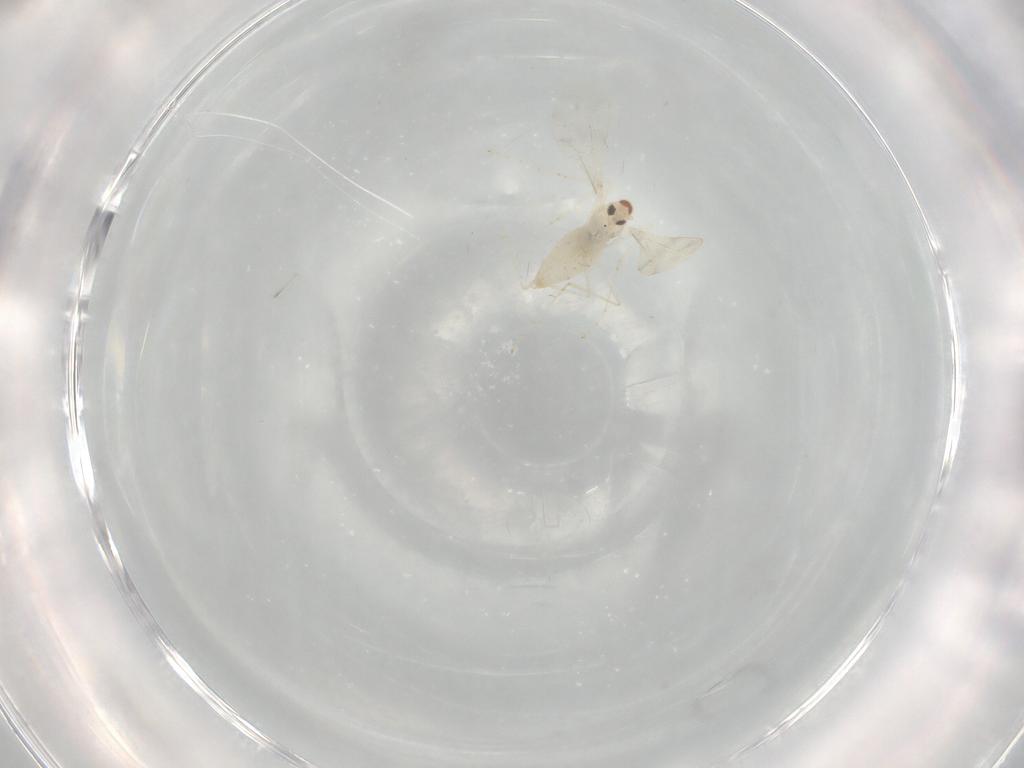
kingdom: Animalia
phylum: Arthropoda
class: Insecta
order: Diptera
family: Cecidomyiidae
